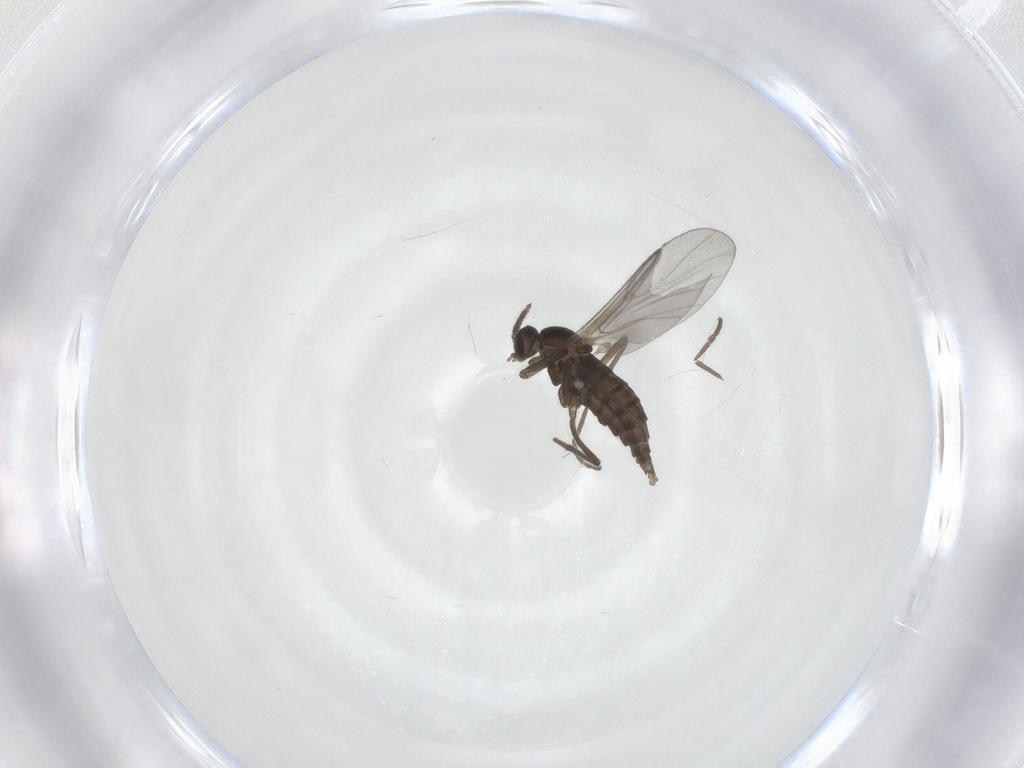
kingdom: Animalia
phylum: Arthropoda
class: Insecta
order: Diptera
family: Cecidomyiidae
